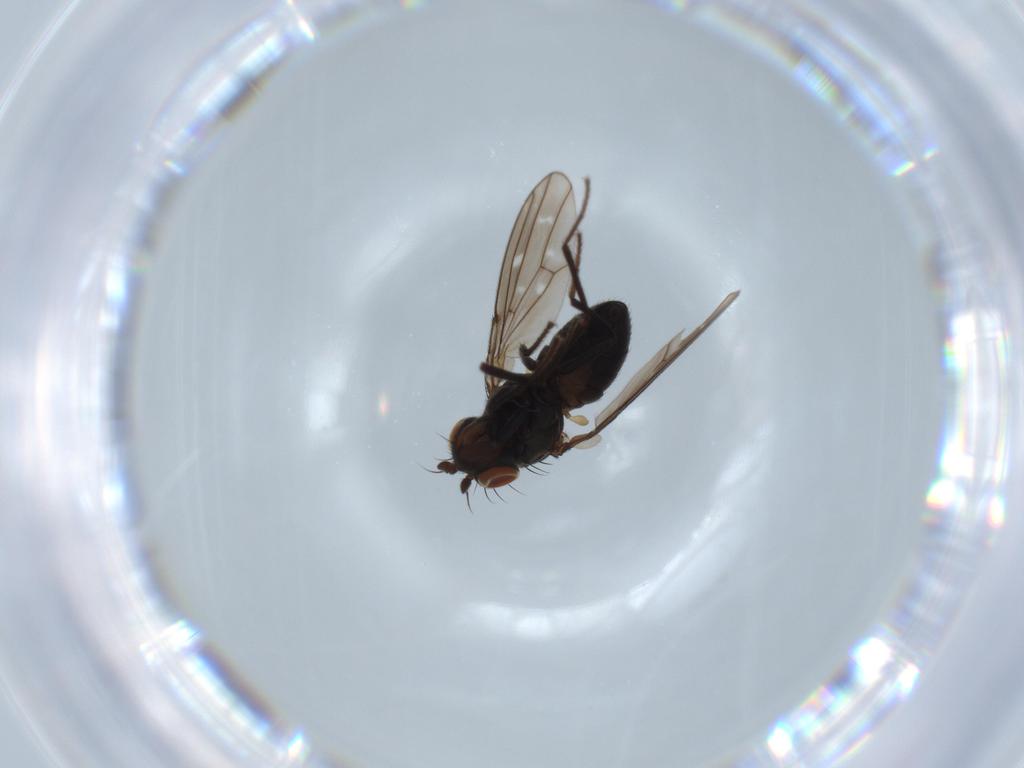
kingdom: Animalia
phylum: Arthropoda
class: Insecta
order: Diptera
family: Ephydridae
